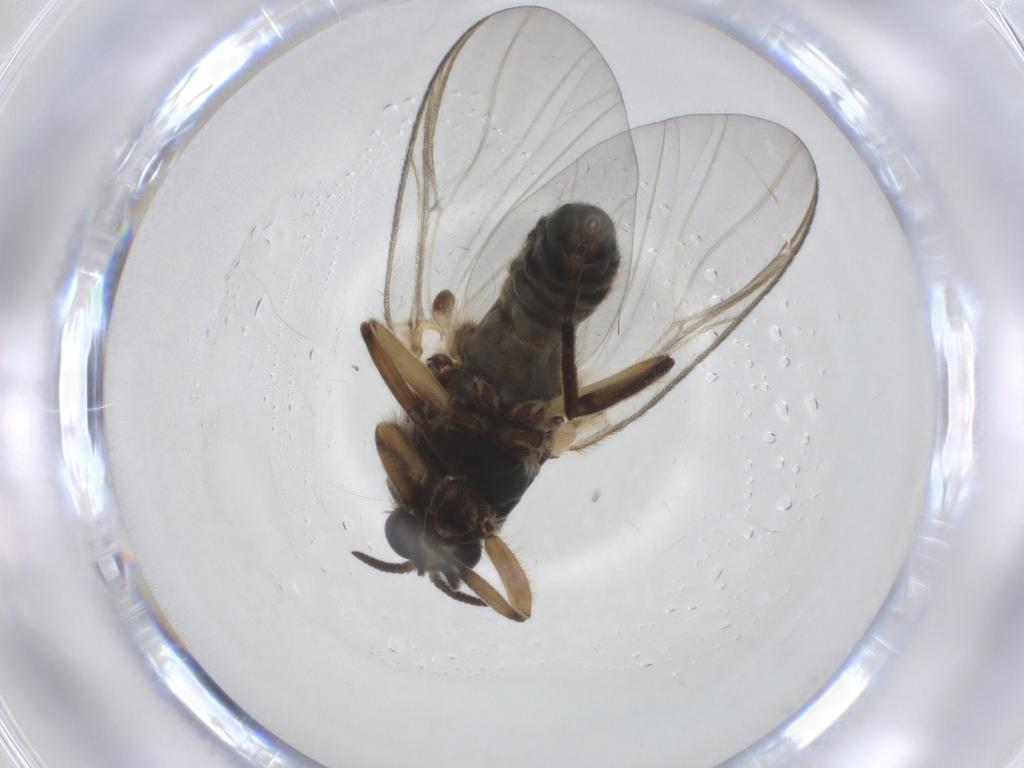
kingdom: Animalia
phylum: Arthropoda
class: Insecta
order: Diptera
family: Simuliidae
